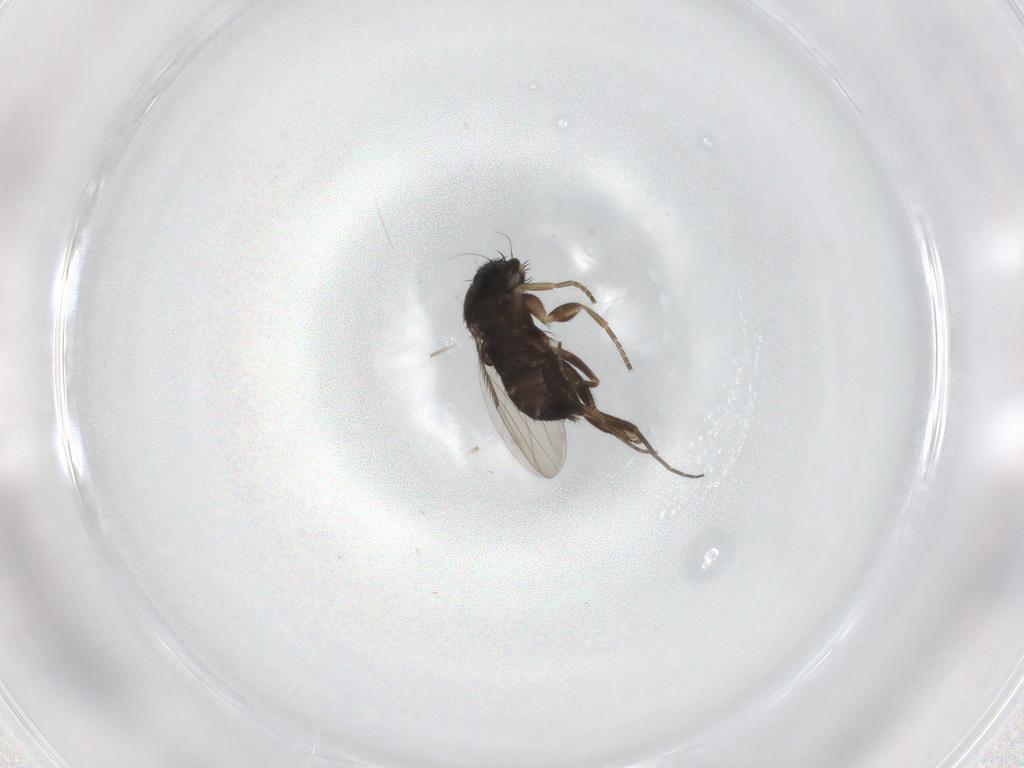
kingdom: Animalia
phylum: Arthropoda
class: Insecta
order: Diptera
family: Phoridae
